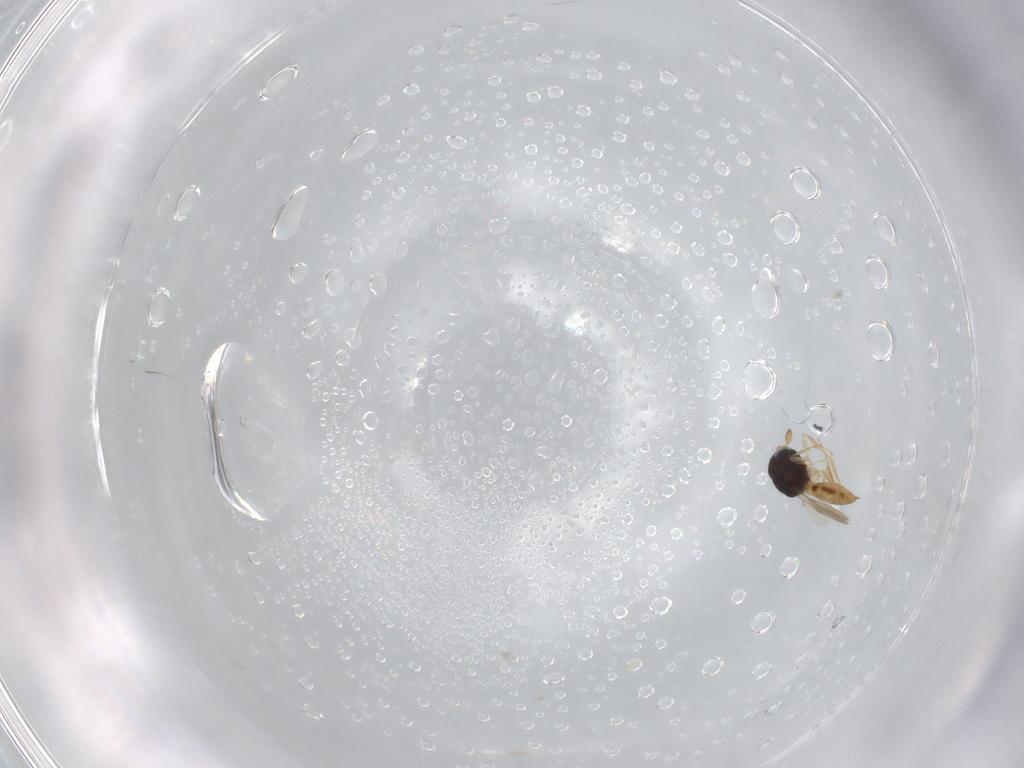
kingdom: Animalia
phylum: Arthropoda
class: Insecta
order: Hymenoptera
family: Scelionidae
